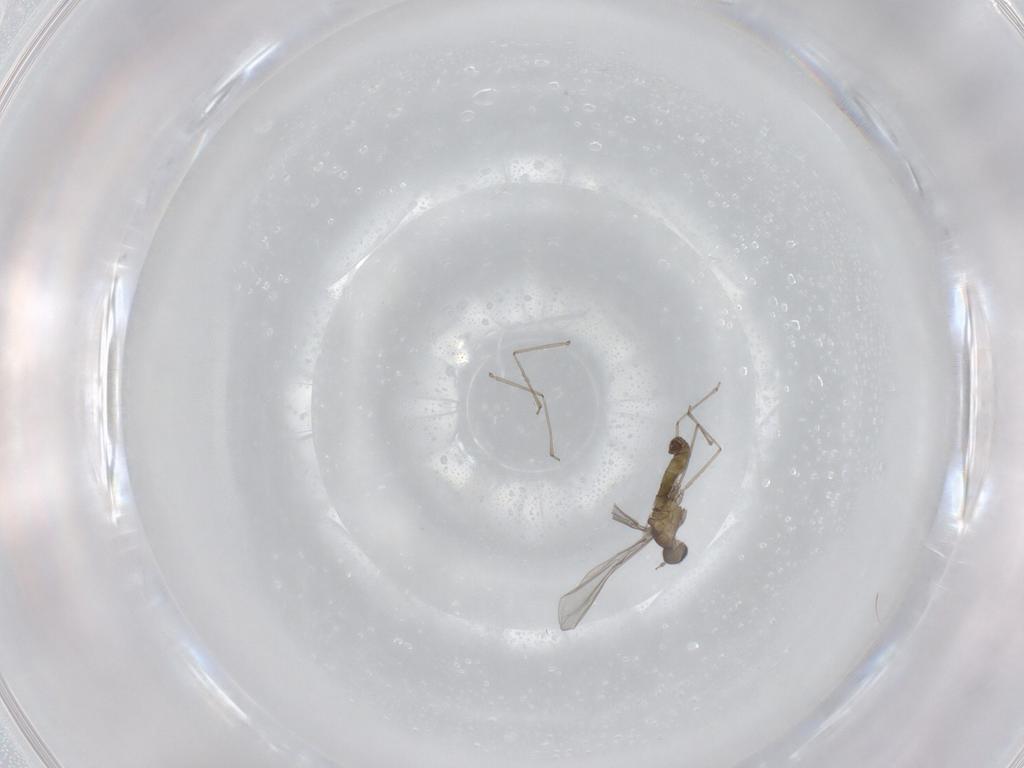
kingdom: Animalia
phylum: Arthropoda
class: Insecta
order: Diptera
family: Cecidomyiidae
